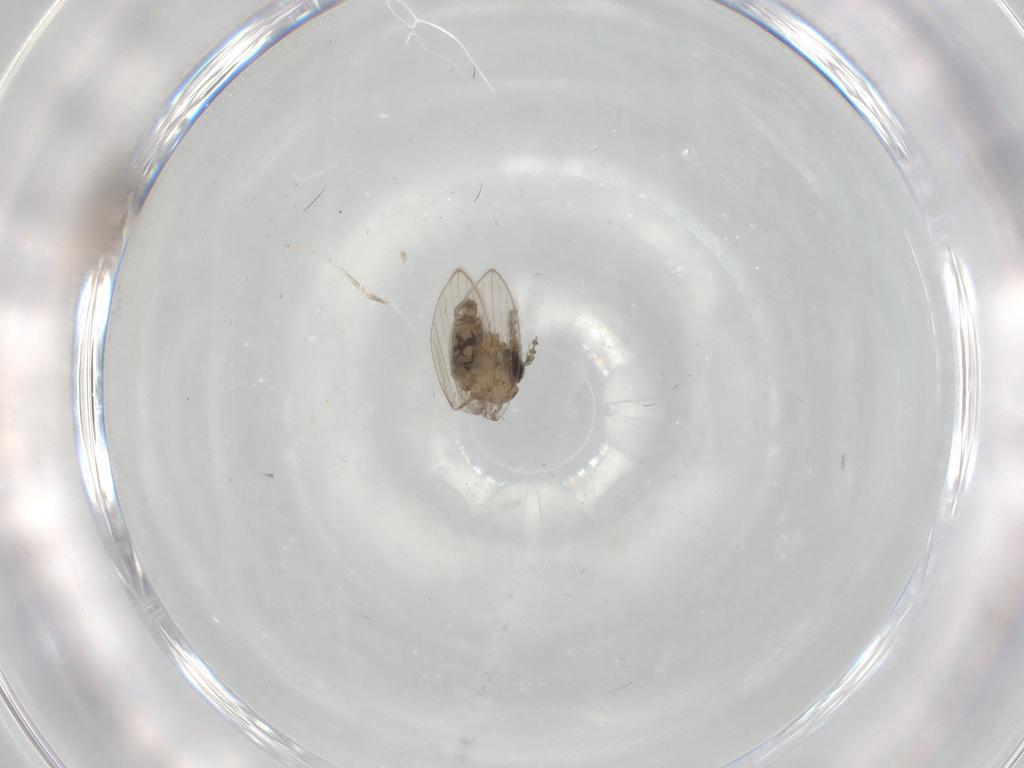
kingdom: Animalia
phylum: Arthropoda
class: Insecta
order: Diptera
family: Psychodidae
